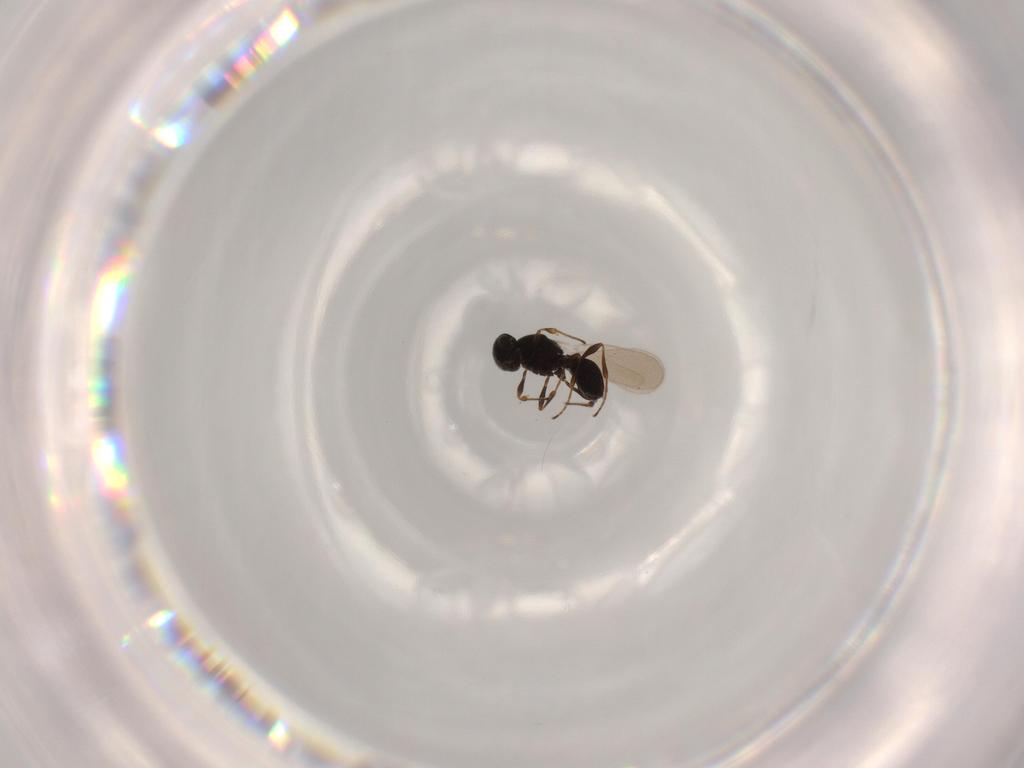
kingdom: Animalia
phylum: Arthropoda
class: Insecta
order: Hymenoptera
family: Platygastridae
